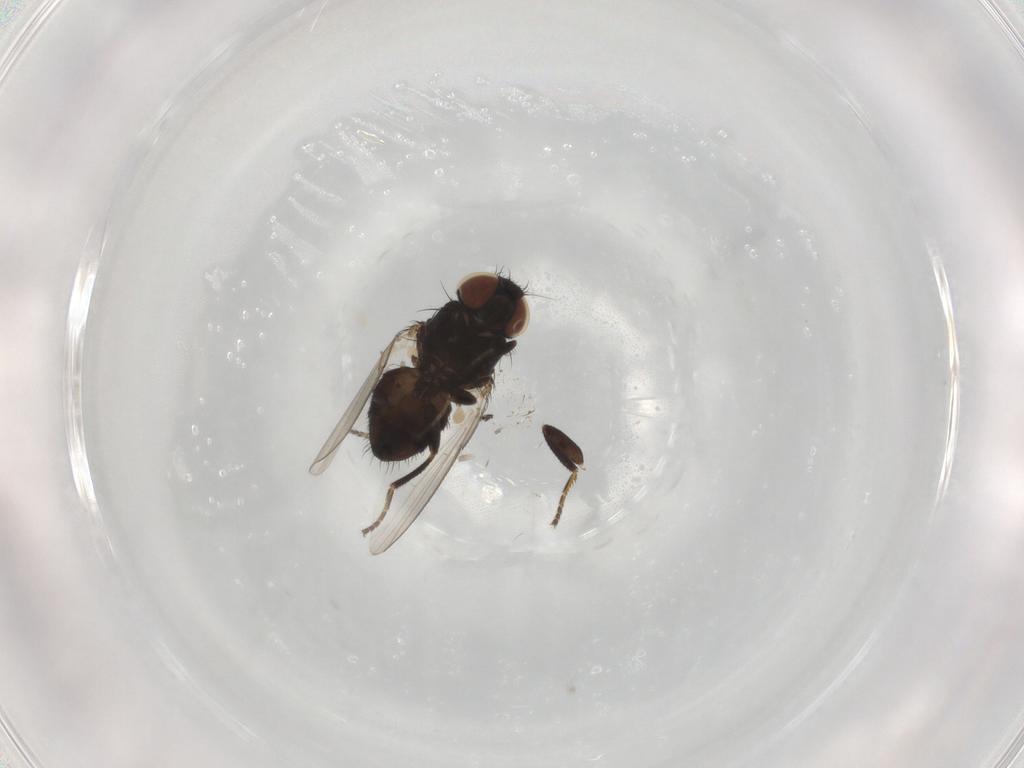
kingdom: Animalia
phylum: Arthropoda
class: Insecta
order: Diptera
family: Milichiidae
